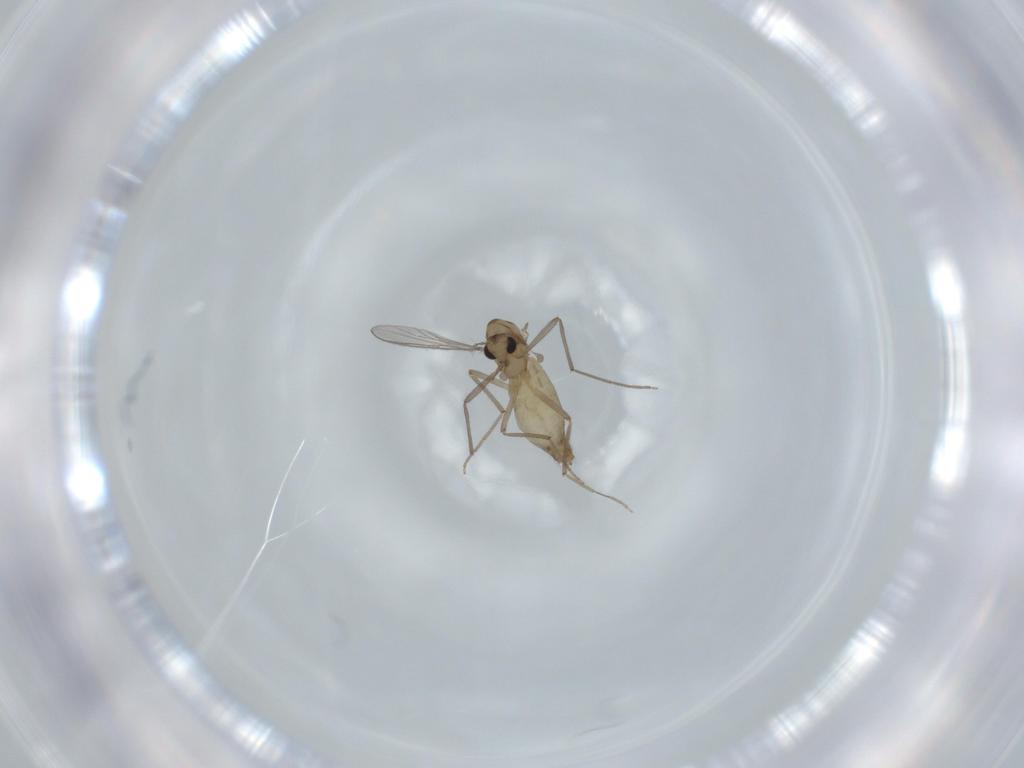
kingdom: Animalia
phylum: Arthropoda
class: Insecta
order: Diptera
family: Chironomidae
